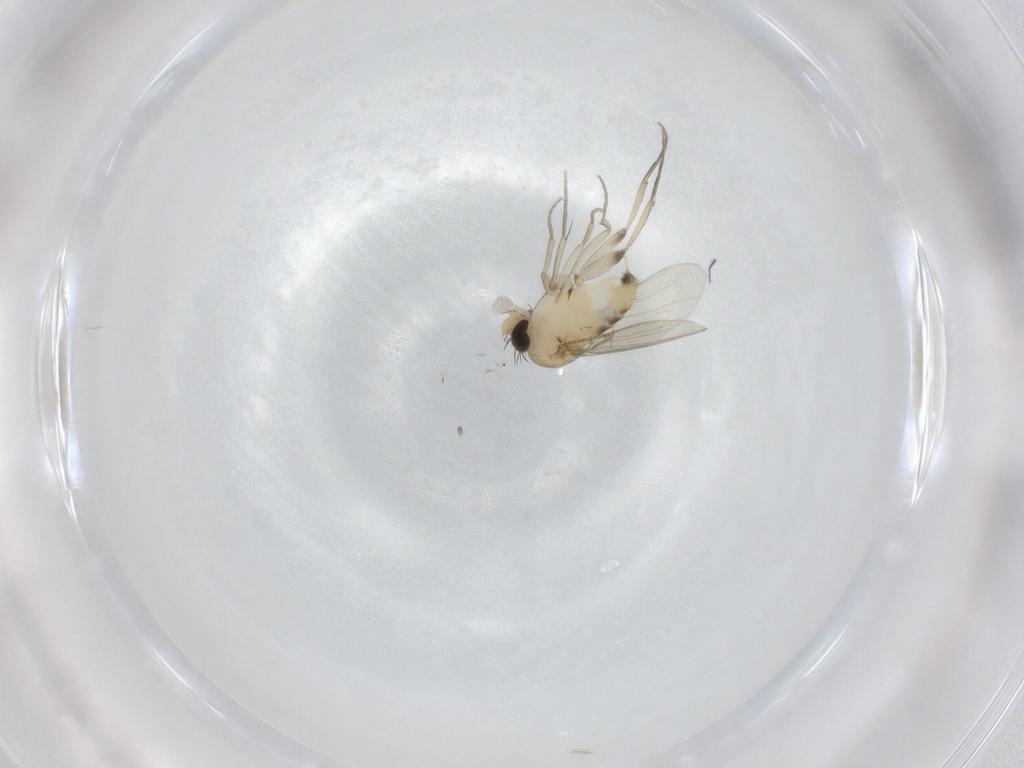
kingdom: Animalia
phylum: Arthropoda
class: Insecta
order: Diptera
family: Phoridae
